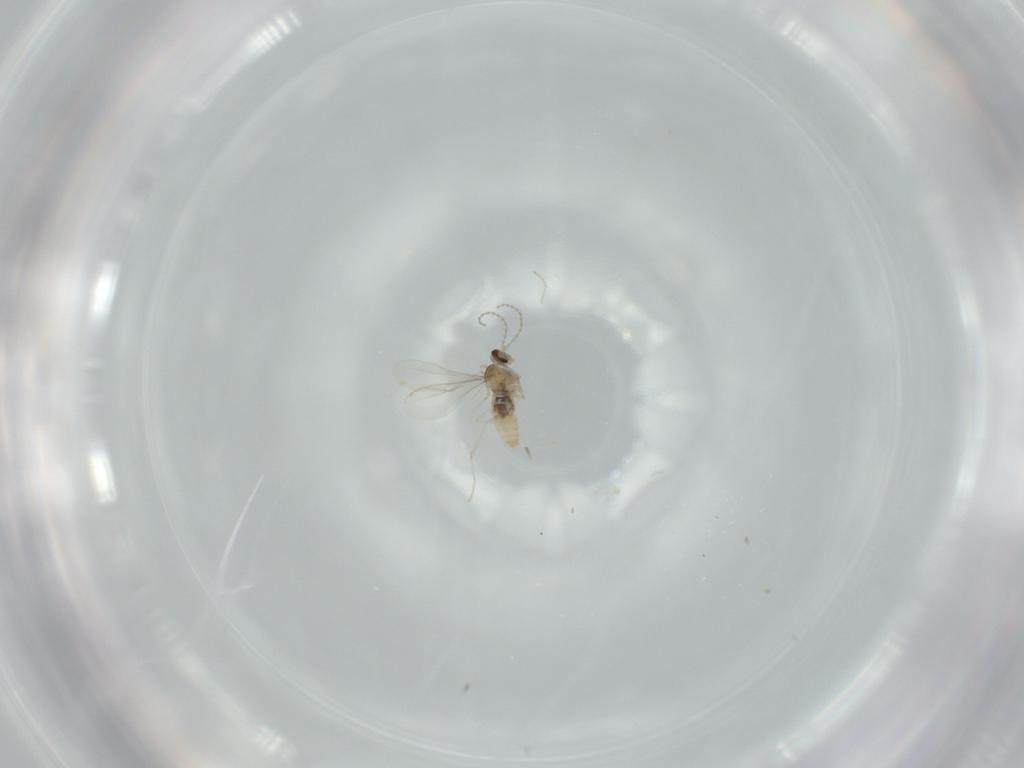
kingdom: Animalia
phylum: Arthropoda
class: Insecta
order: Diptera
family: Cecidomyiidae
